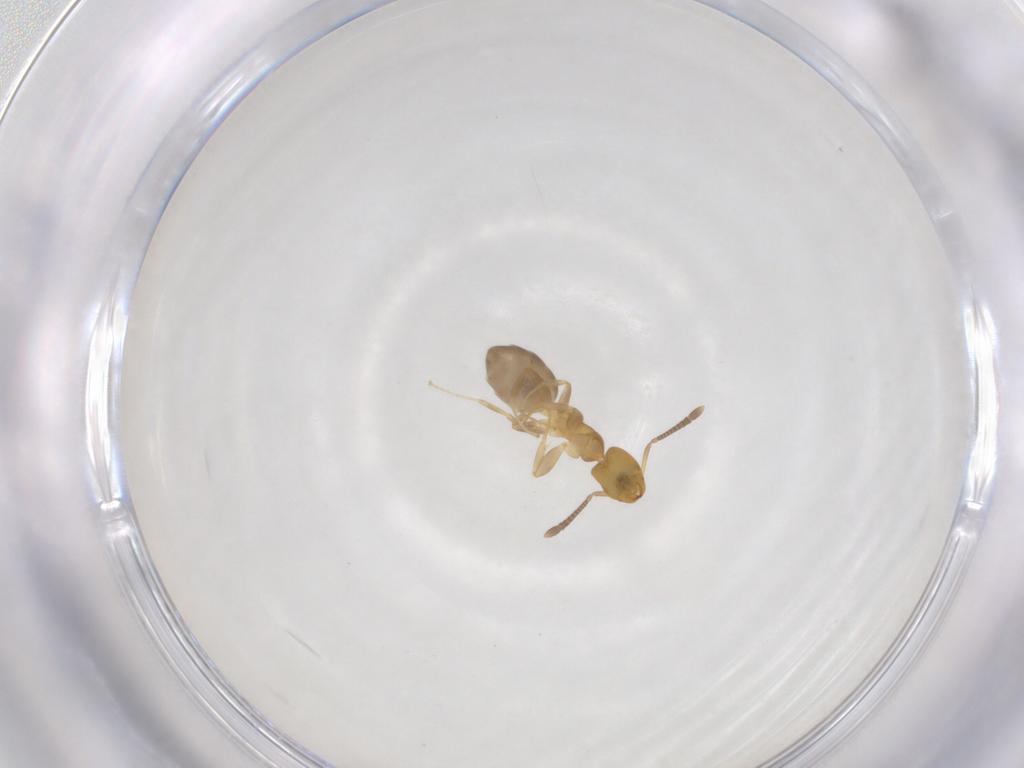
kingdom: Animalia
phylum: Arthropoda
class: Insecta
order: Hymenoptera
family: Formicidae
